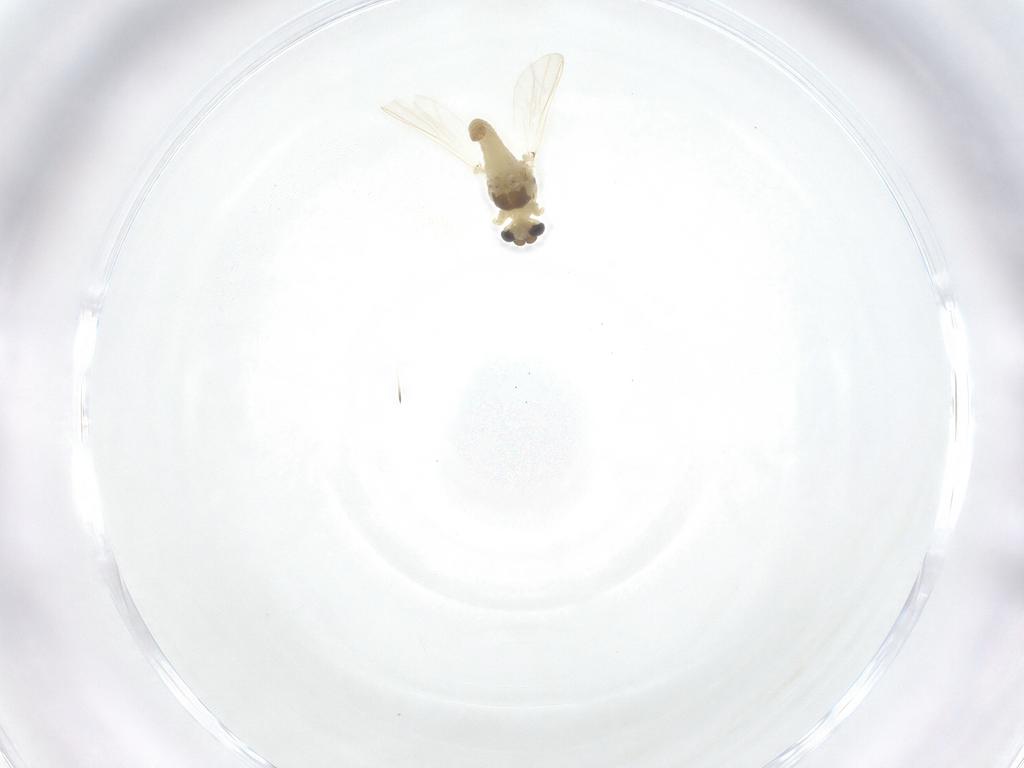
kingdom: Animalia
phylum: Arthropoda
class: Insecta
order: Diptera
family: Chironomidae
